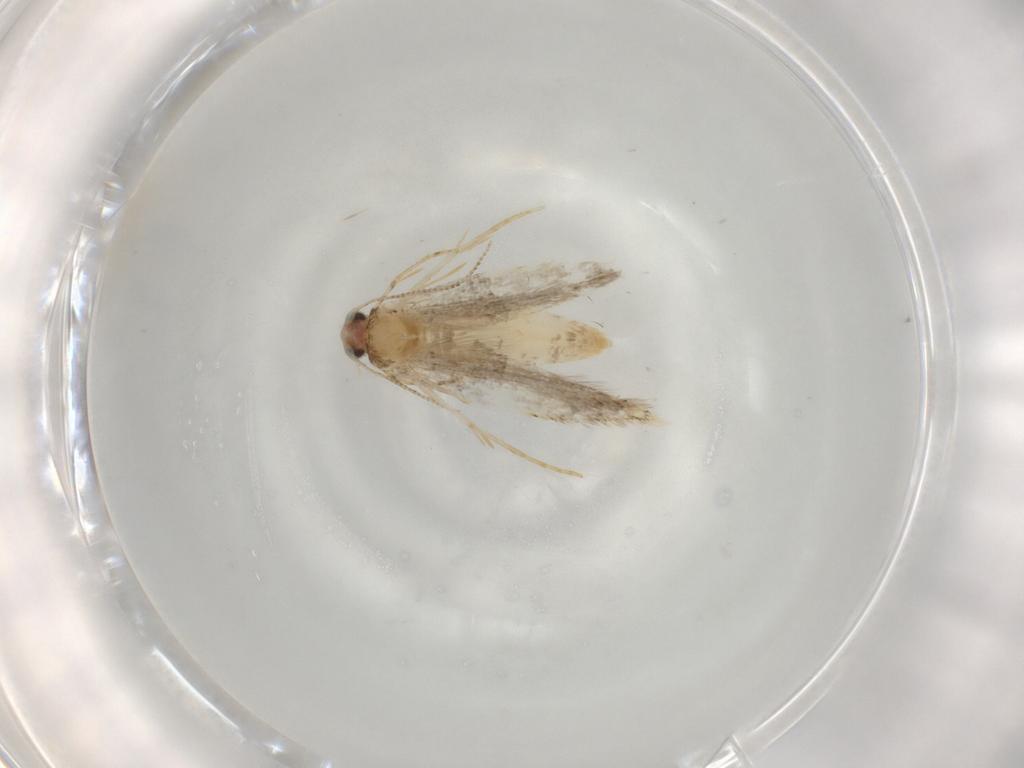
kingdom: Animalia
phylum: Arthropoda
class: Insecta
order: Lepidoptera
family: Tineidae
